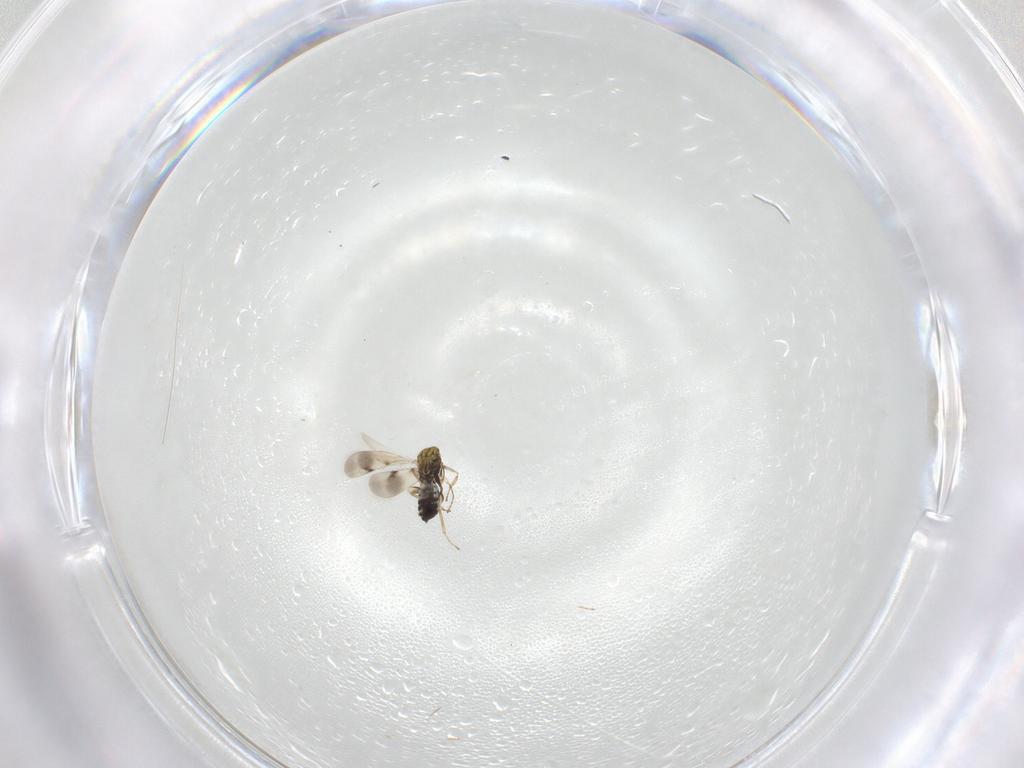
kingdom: Animalia
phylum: Arthropoda
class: Insecta
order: Hymenoptera
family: Eulophidae
